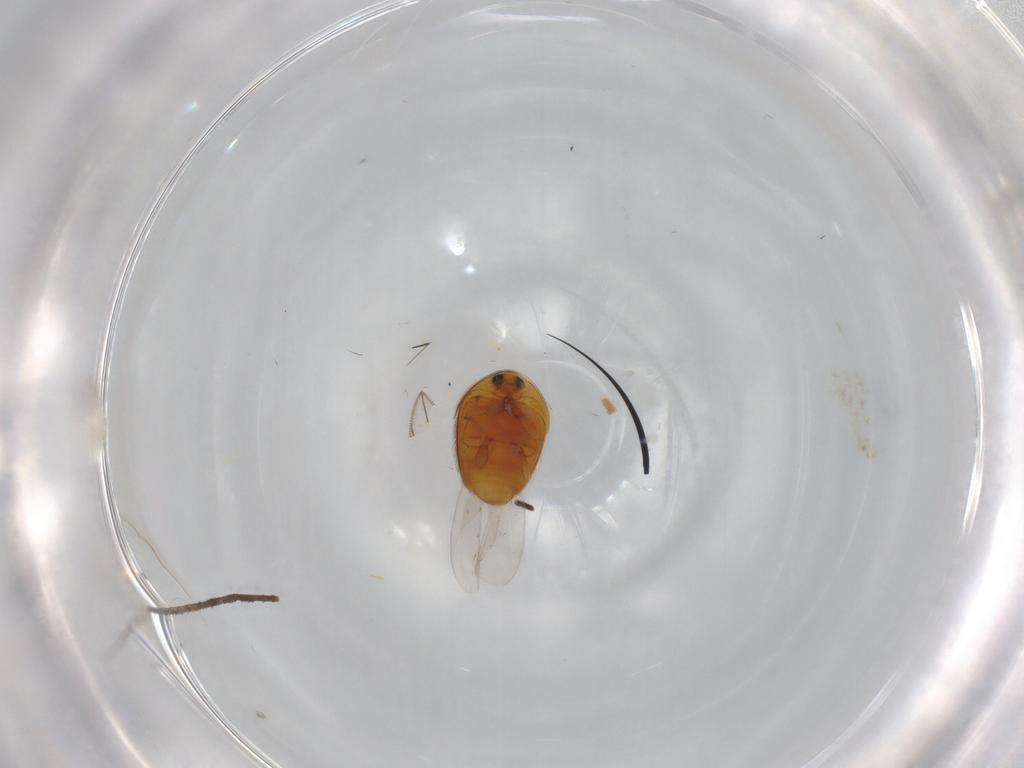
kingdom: Animalia
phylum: Arthropoda
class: Insecta
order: Coleoptera
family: Corylophidae
